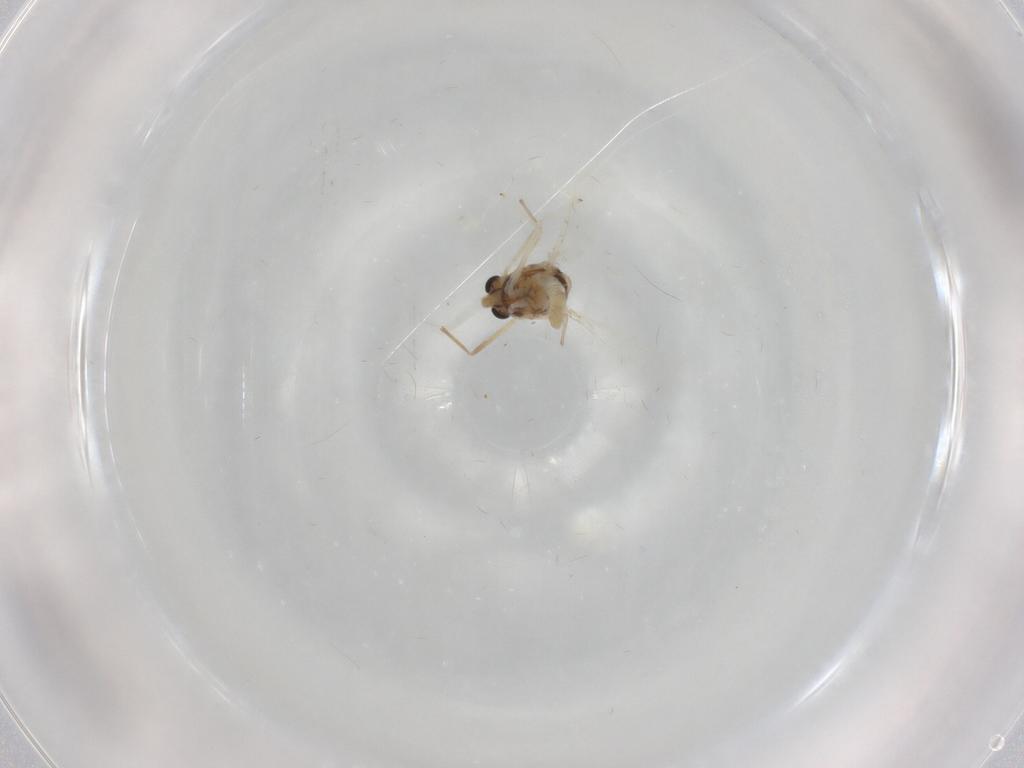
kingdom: Animalia
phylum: Arthropoda
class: Insecta
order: Diptera
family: Chironomidae
